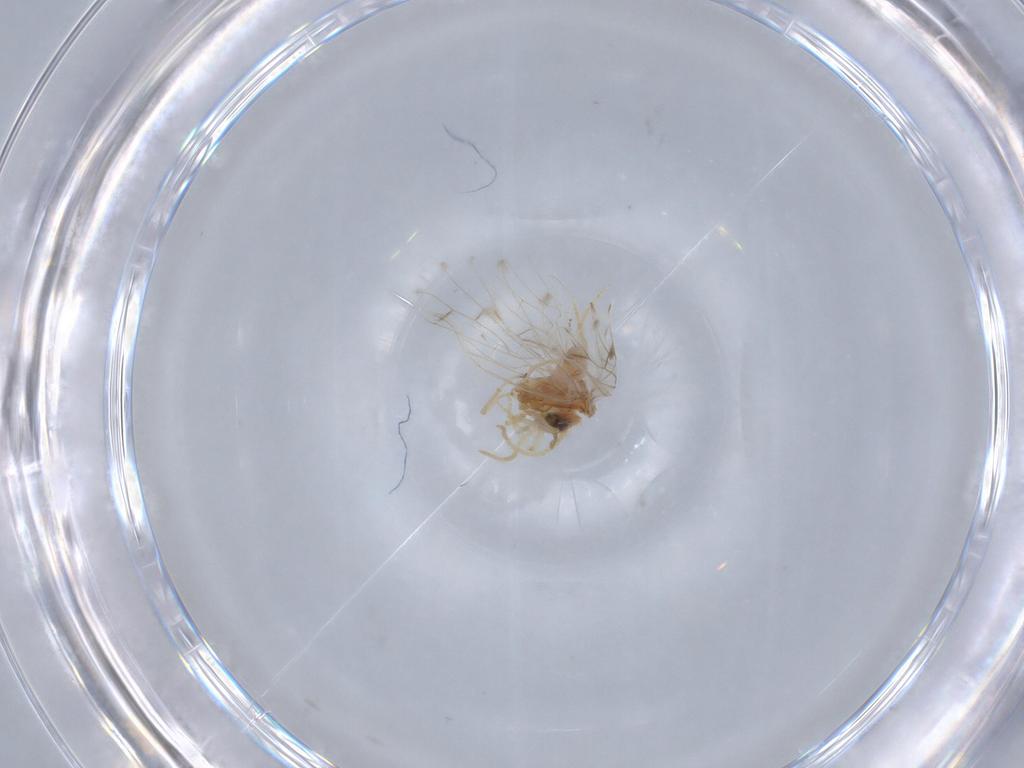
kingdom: Animalia
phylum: Arthropoda
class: Insecta
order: Neuroptera
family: Coniopterygidae
